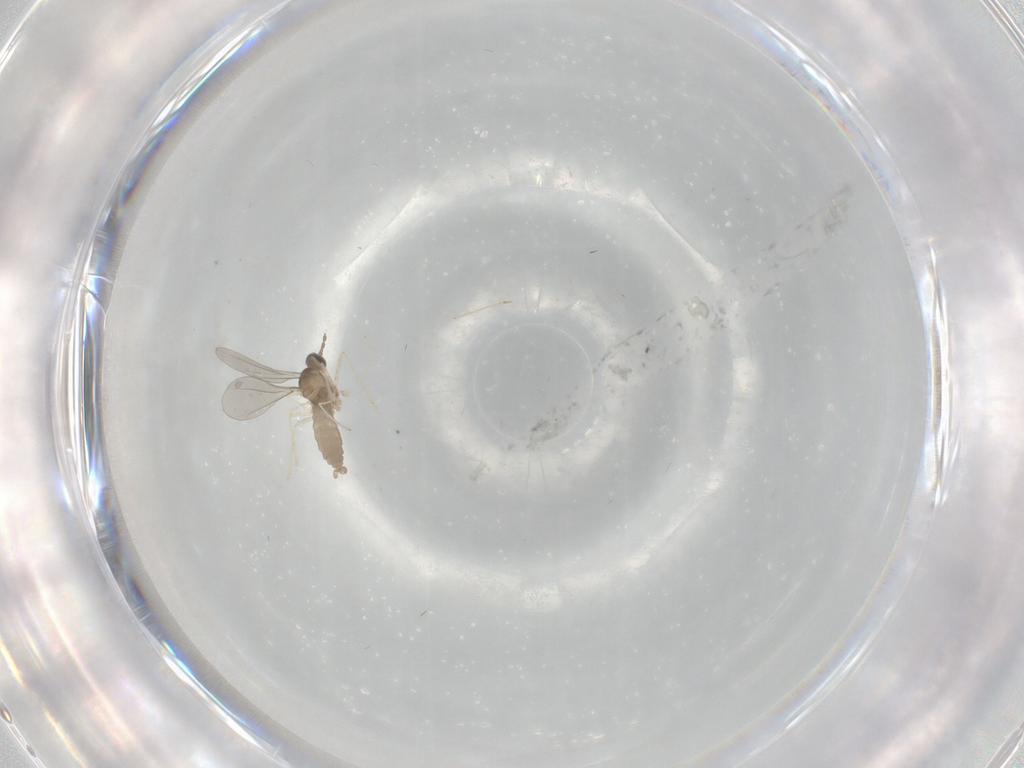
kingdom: Animalia
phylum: Arthropoda
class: Insecta
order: Diptera
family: Cecidomyiidae
